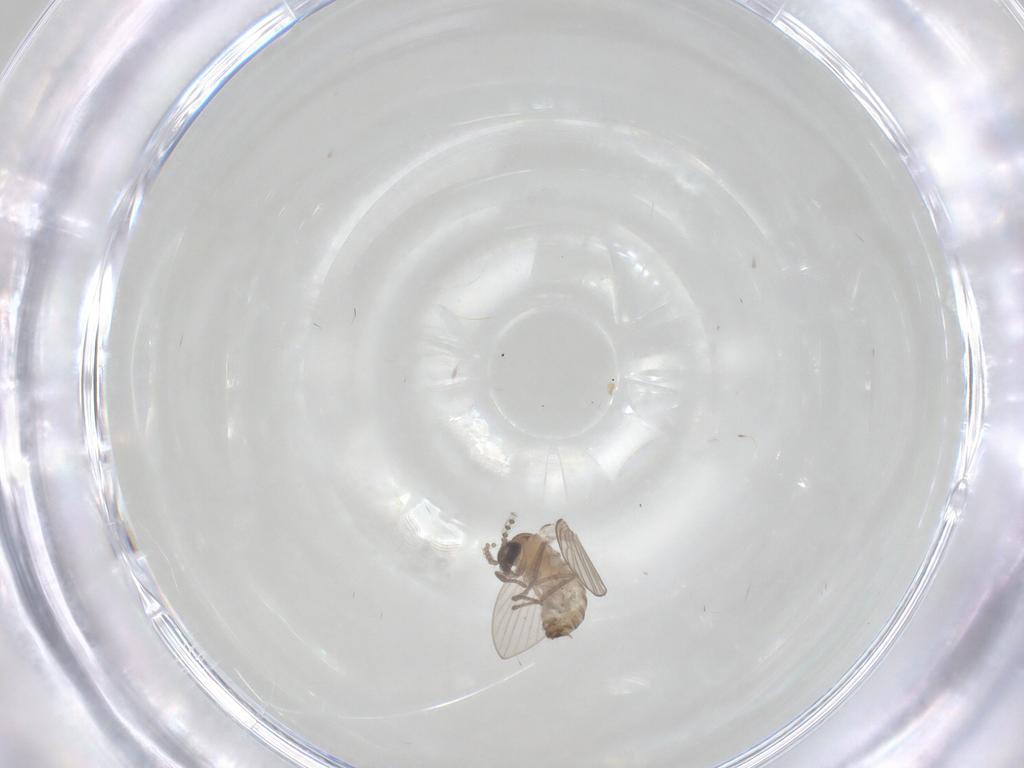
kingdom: Animalia
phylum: Arthropoda
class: Insecta
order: Diptera
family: Psychodidae
